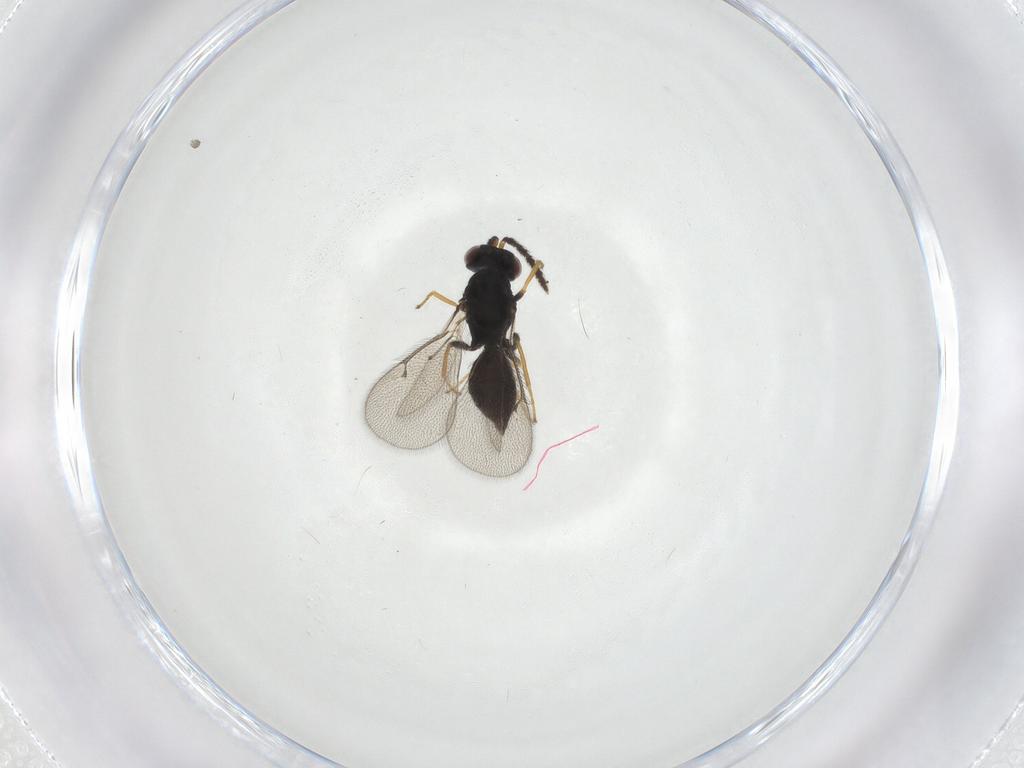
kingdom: Animalia
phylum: Arthropoda
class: Insecta
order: Hymenoptera
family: Eulophidae
